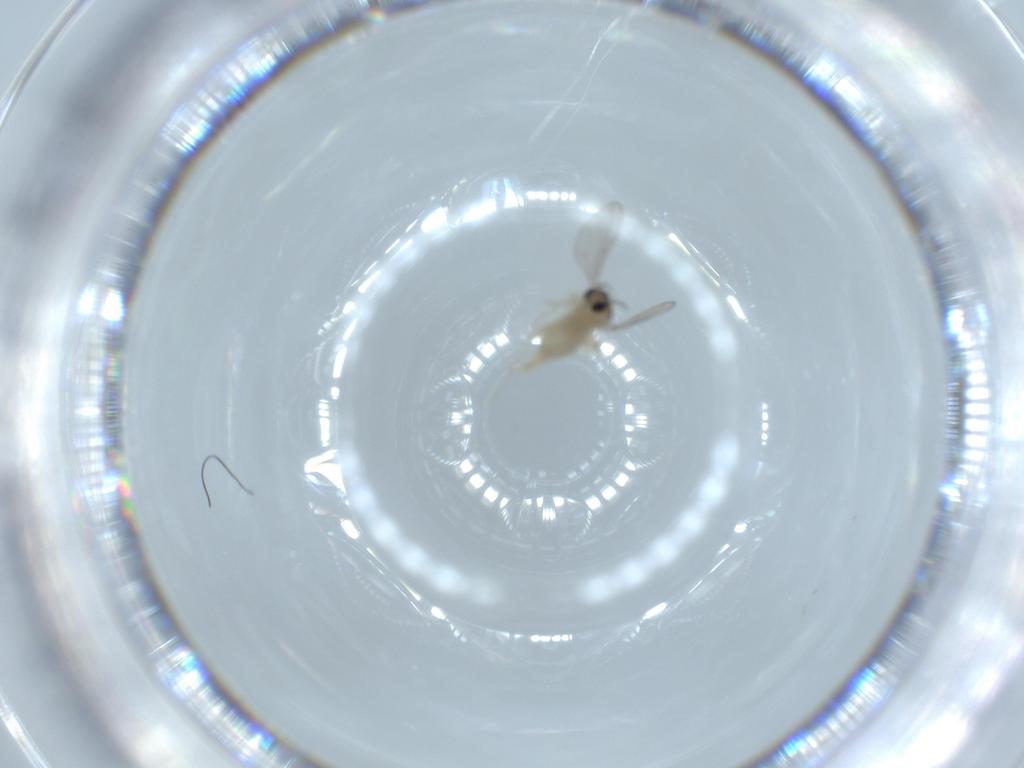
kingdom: Animalia
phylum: Arthropoda
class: Insecta
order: Diptera
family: Cecidomyiidae
